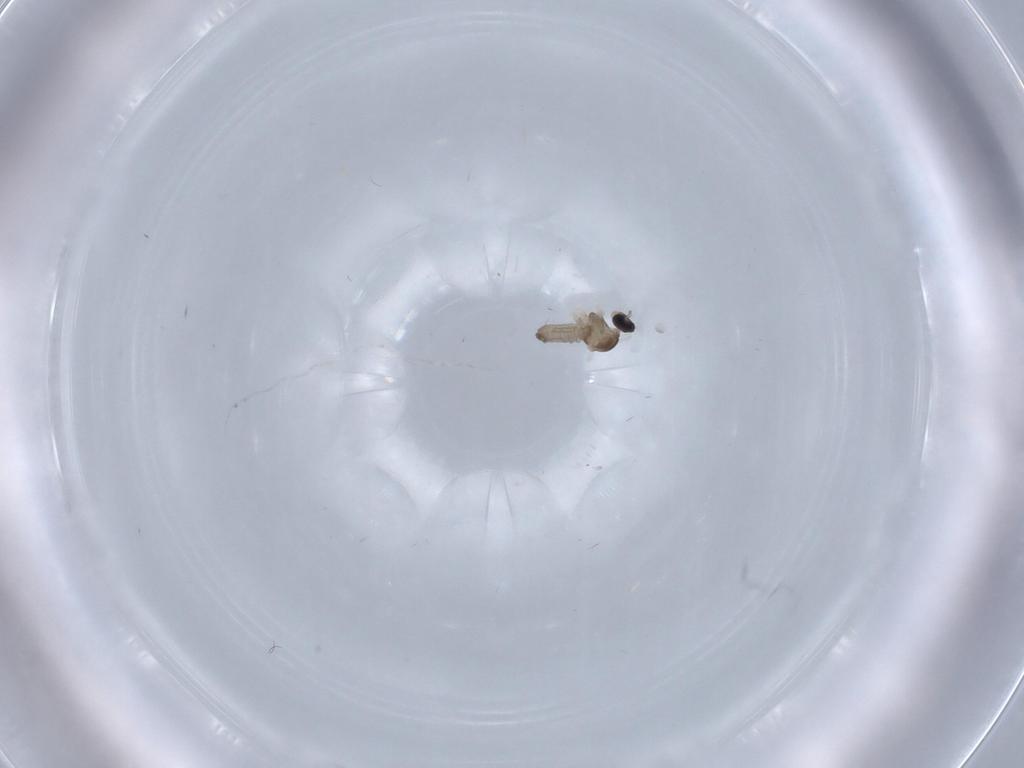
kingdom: Animalia
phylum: Arthropoda
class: Insecta
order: Diptera
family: Cecidomyiidae
